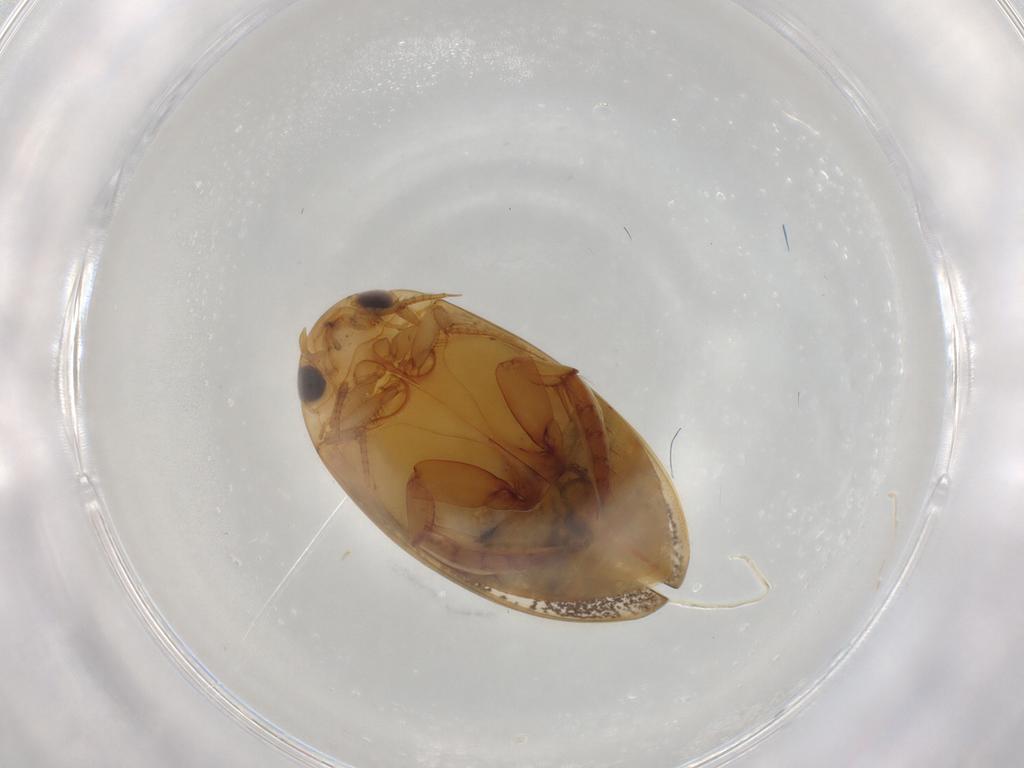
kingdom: Animalia
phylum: Arthropoda
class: Insecta
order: Coleoptera
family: Dytiscidae
